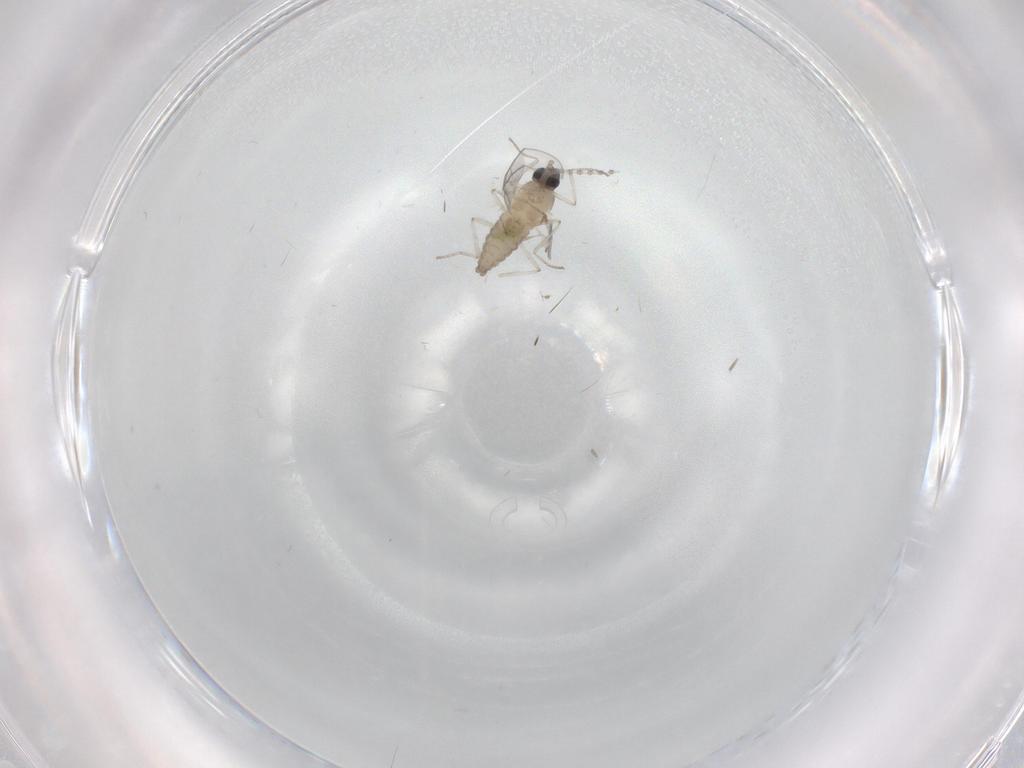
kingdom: Animalia
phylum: Arthropoda
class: Insecta
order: Diptera
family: Chironomidae
